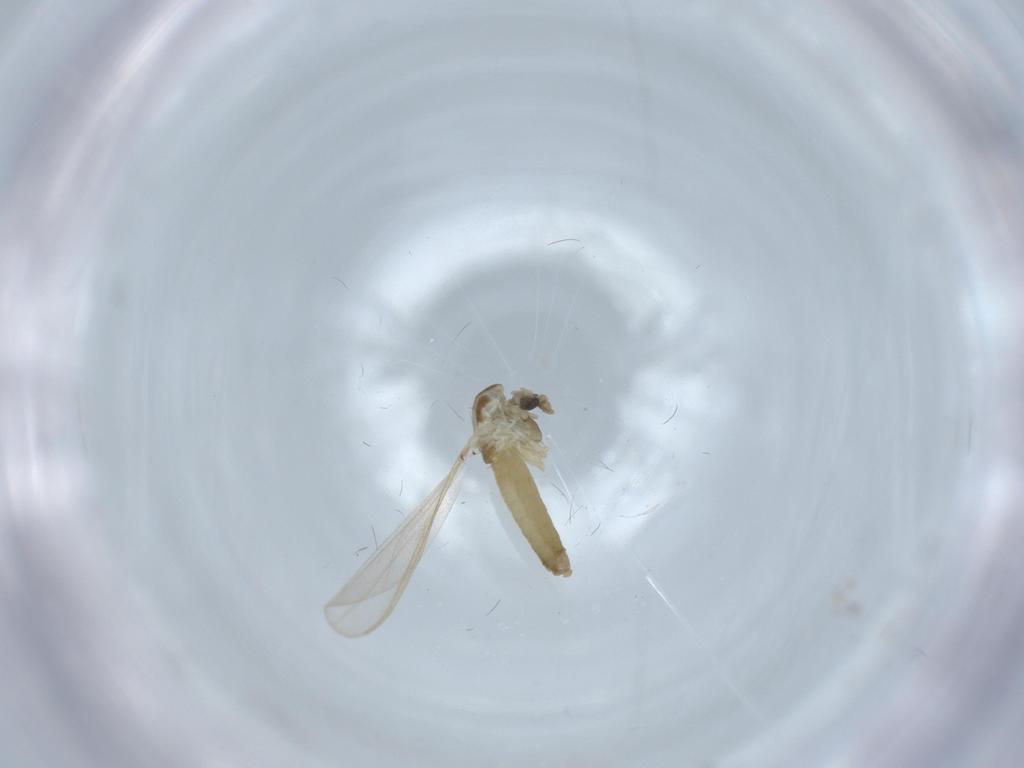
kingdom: Animalia
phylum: Arthropoda
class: Insecta
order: Diptera
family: Chironomidae
